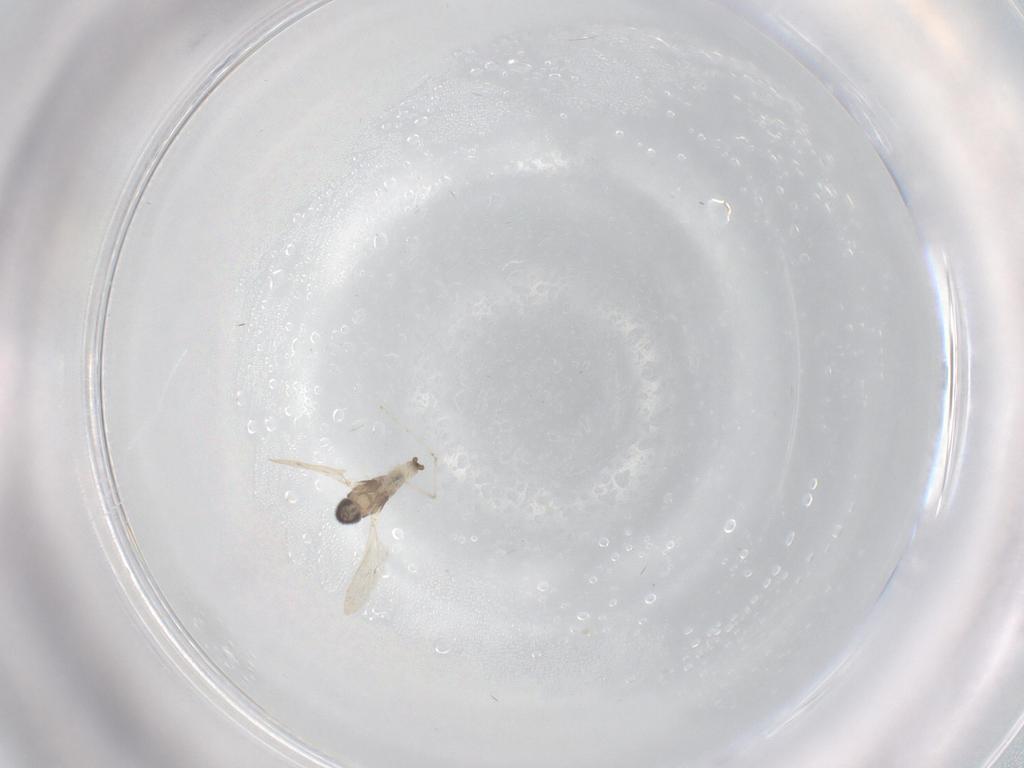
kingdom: Animalia
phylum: Arthropoda
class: Insecta
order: Diptera
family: Cecidomyiidae
